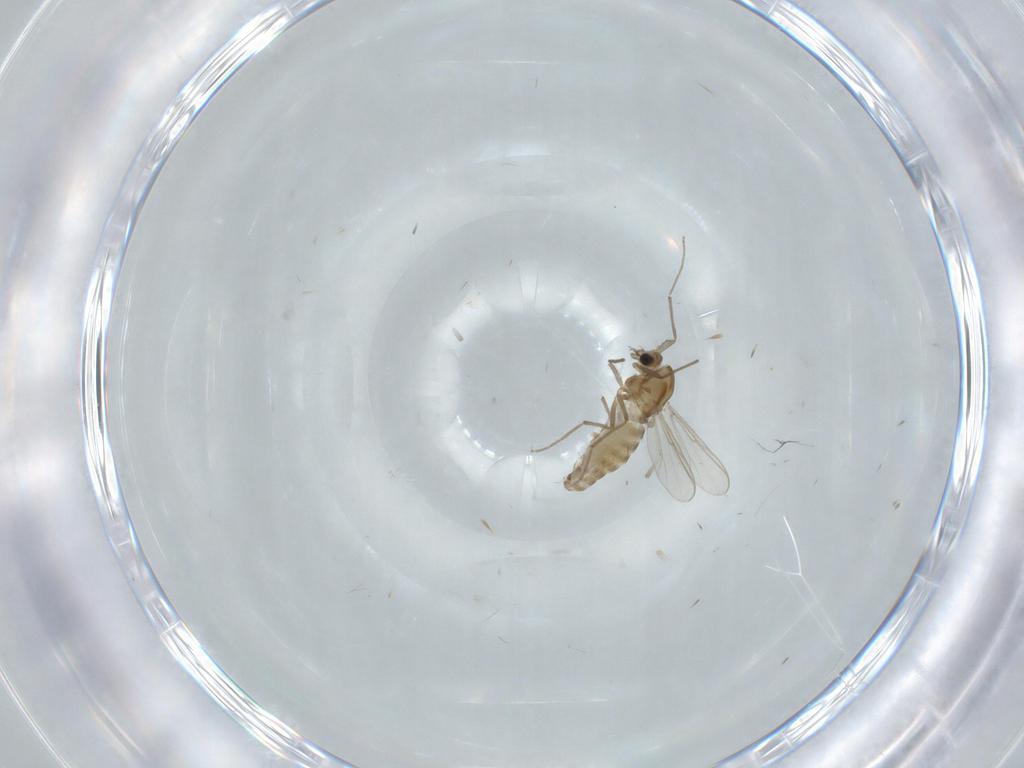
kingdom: Animalia
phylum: Arthropoda
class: Insecta
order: Diptera
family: Chironomidae
